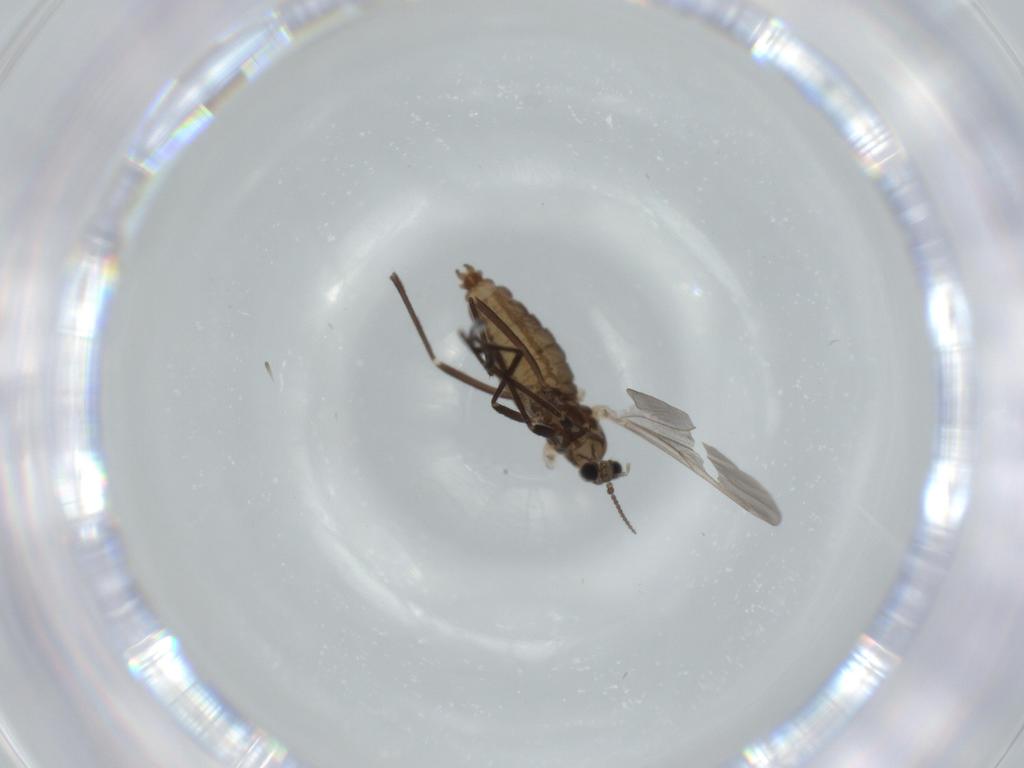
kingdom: Animalia
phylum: Arthropoda
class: Insecta
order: Diptera
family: Cecidomyiidae
